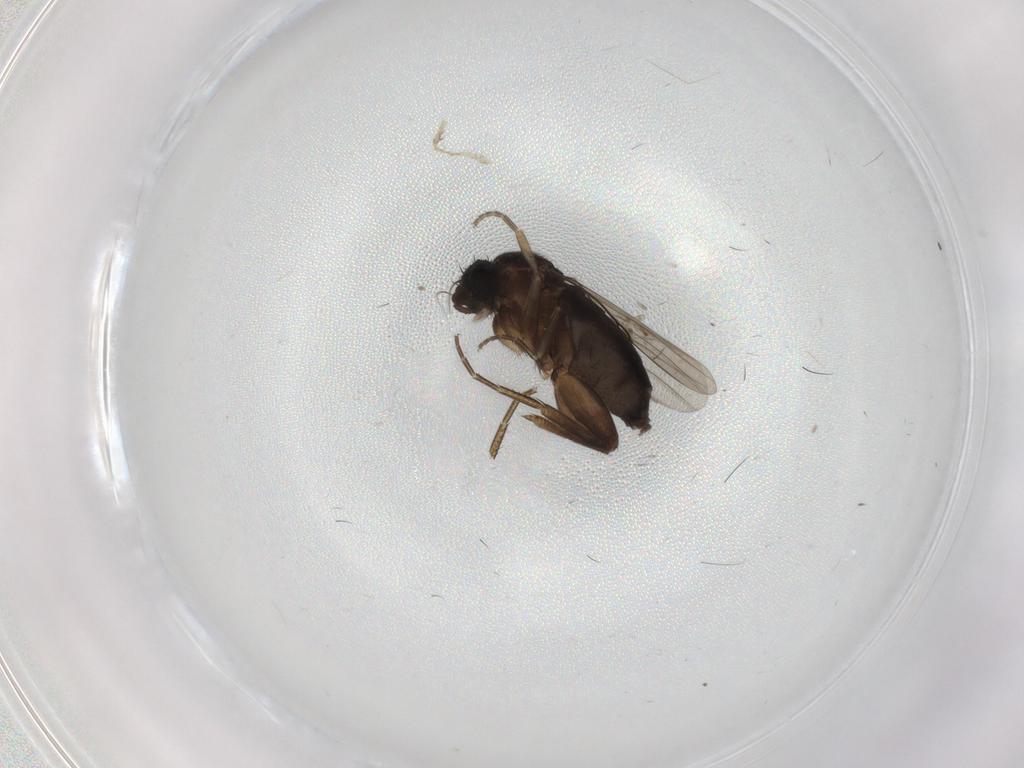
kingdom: Animalia
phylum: Arthropoda
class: Insecta
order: Diptera
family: Phoridae
